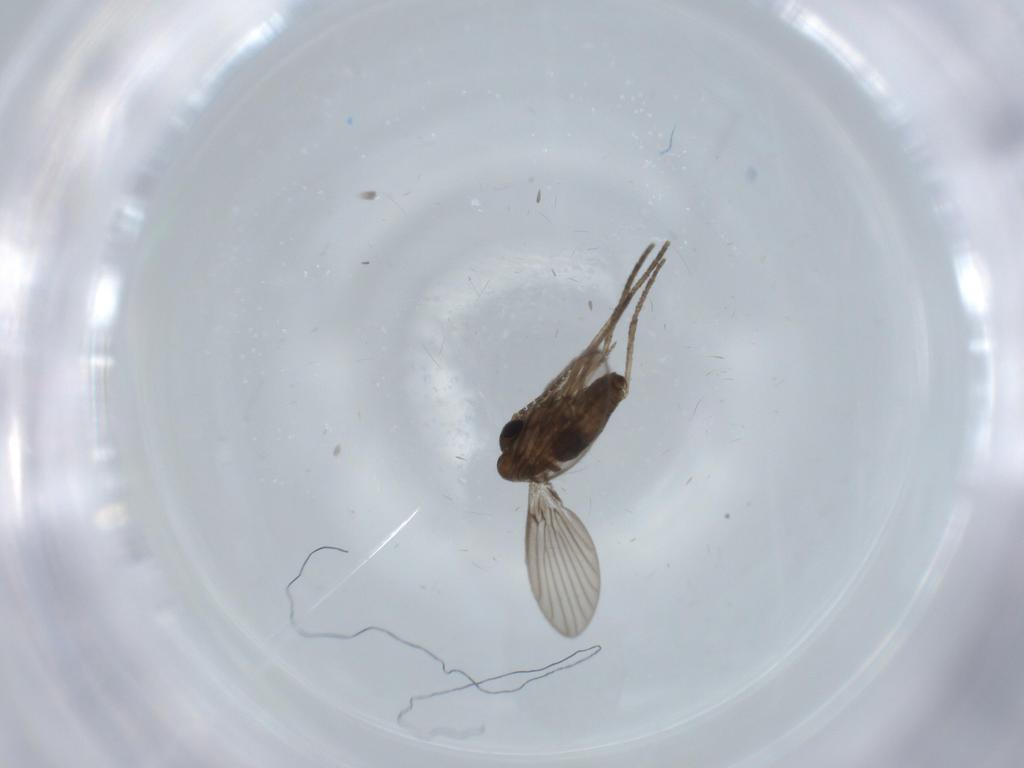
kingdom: Animalia
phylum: Arthropoda
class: Insecta
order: Diptera
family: Psychodidae
